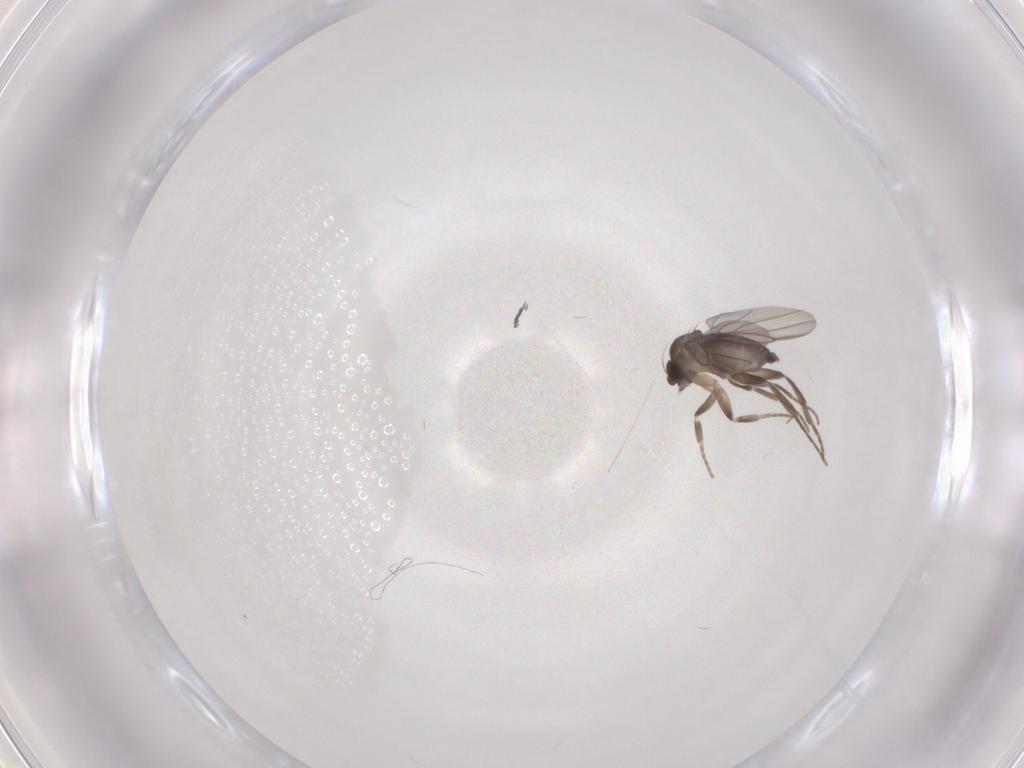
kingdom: Animalia
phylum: Arthropoda
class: Insecta
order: Diptera
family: Phoridae
